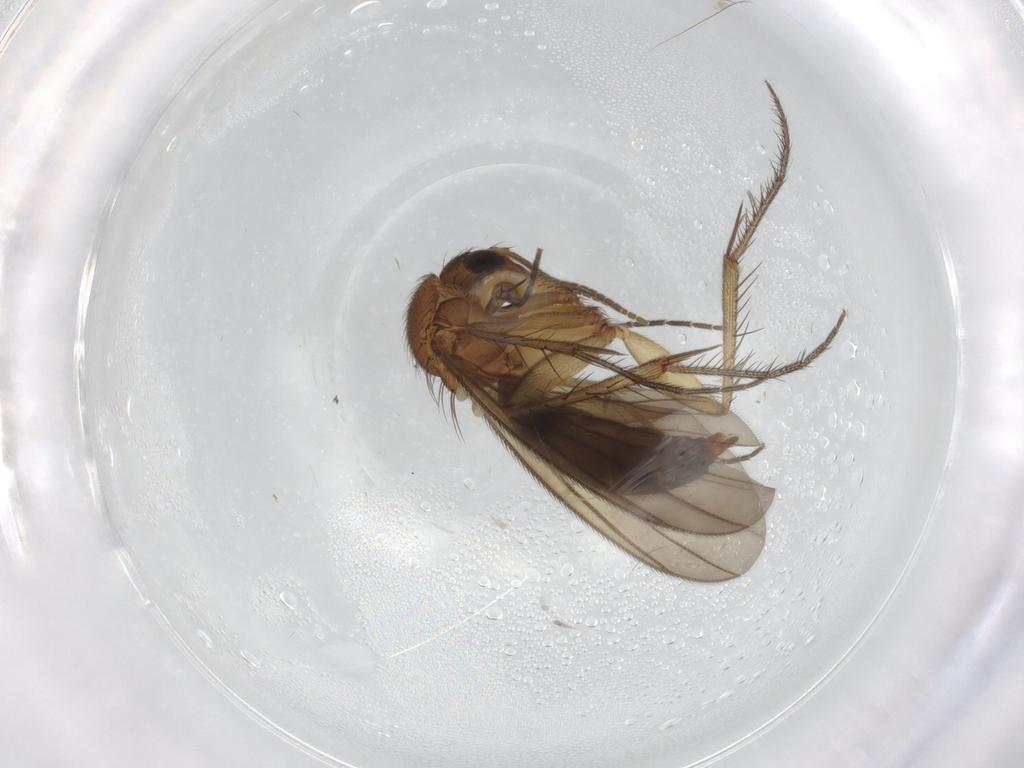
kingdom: Animalia
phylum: Arthropoda
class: Insecta
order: Diptera
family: Mycetophilidae
